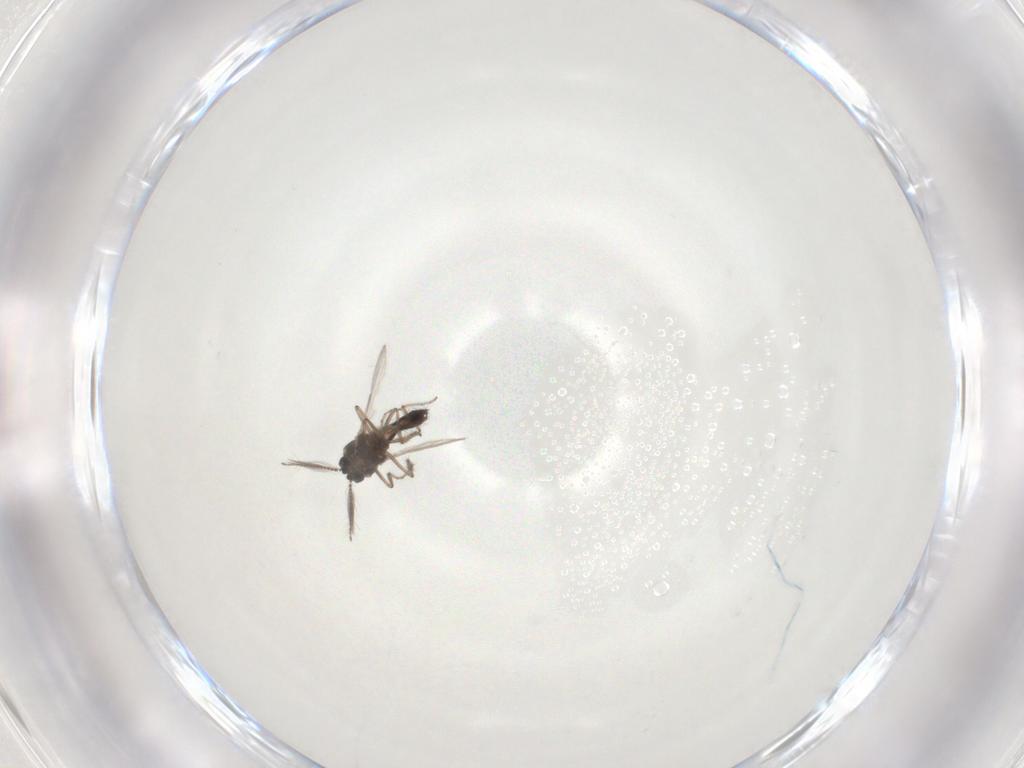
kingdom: Animalia
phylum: Arthropoda
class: Insecta
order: Diptera
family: Ceratopogonidae
